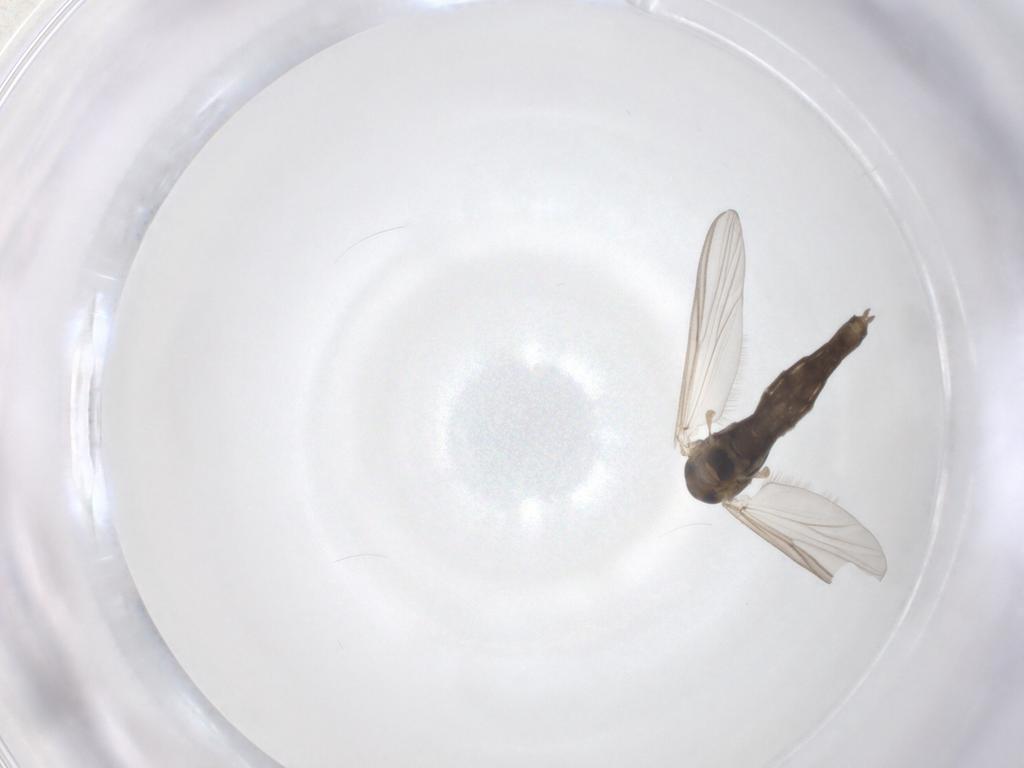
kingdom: Animalia
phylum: Arthropoda
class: Insecta
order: Diptera
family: Chironomidae
